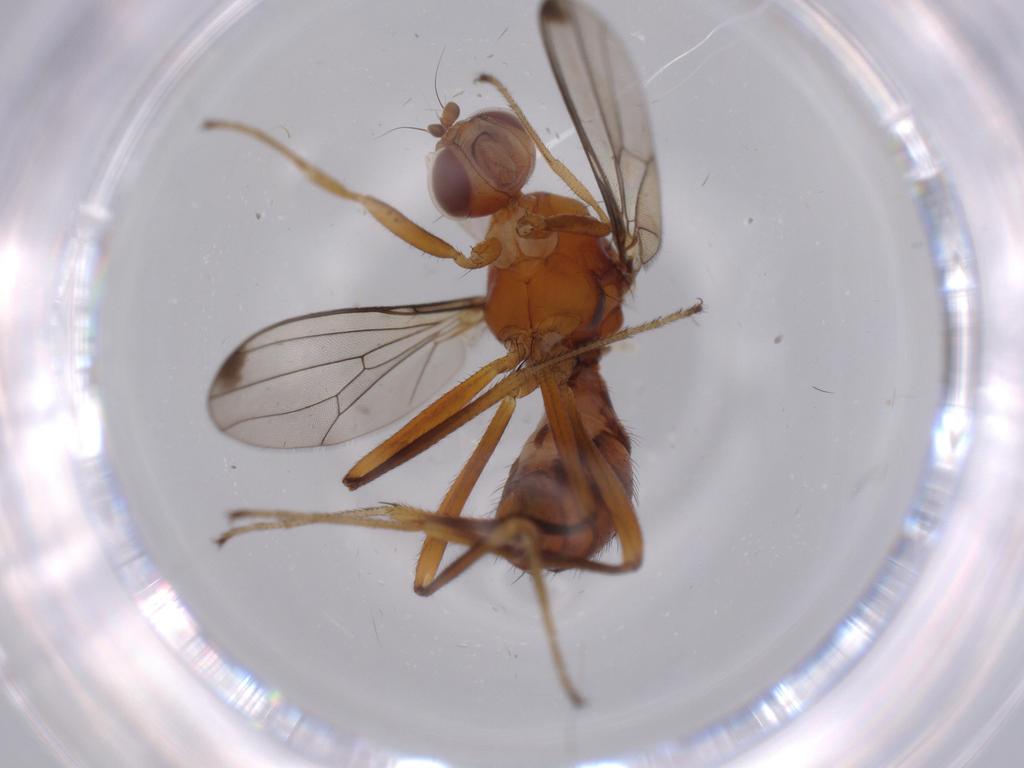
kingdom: Animalia
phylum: Arthropoda
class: Insecta
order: Diptera
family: Sepsidae
